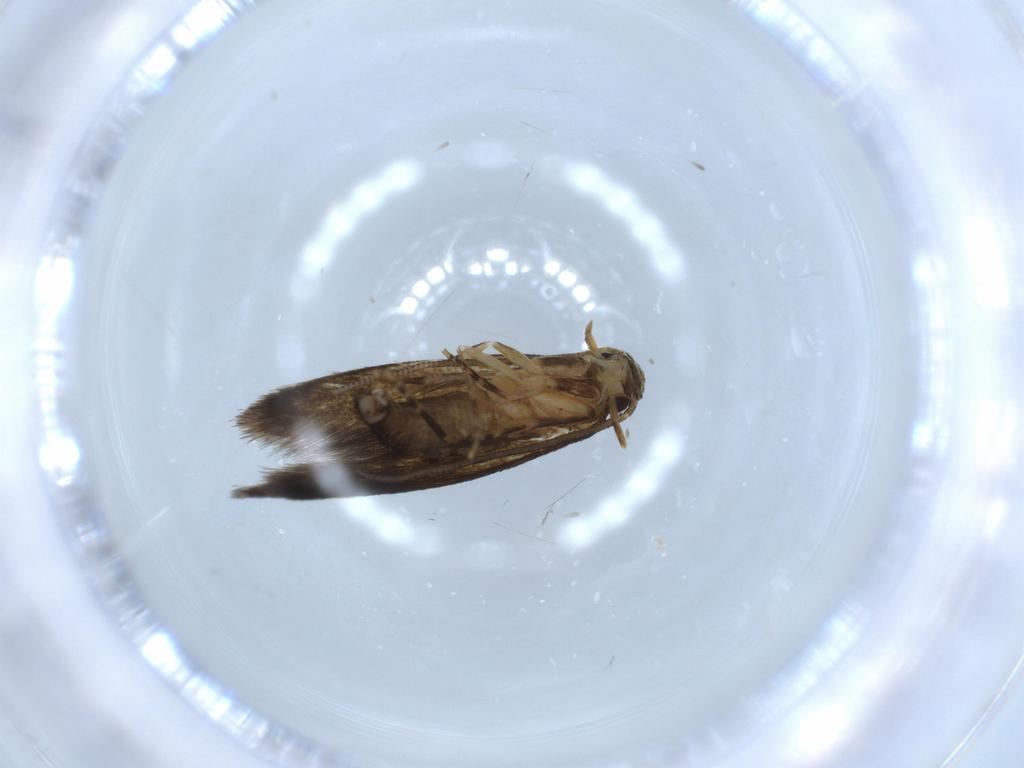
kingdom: Animalia
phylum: Arthropoda
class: Insecta
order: Lepidoptera
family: Tineidae
